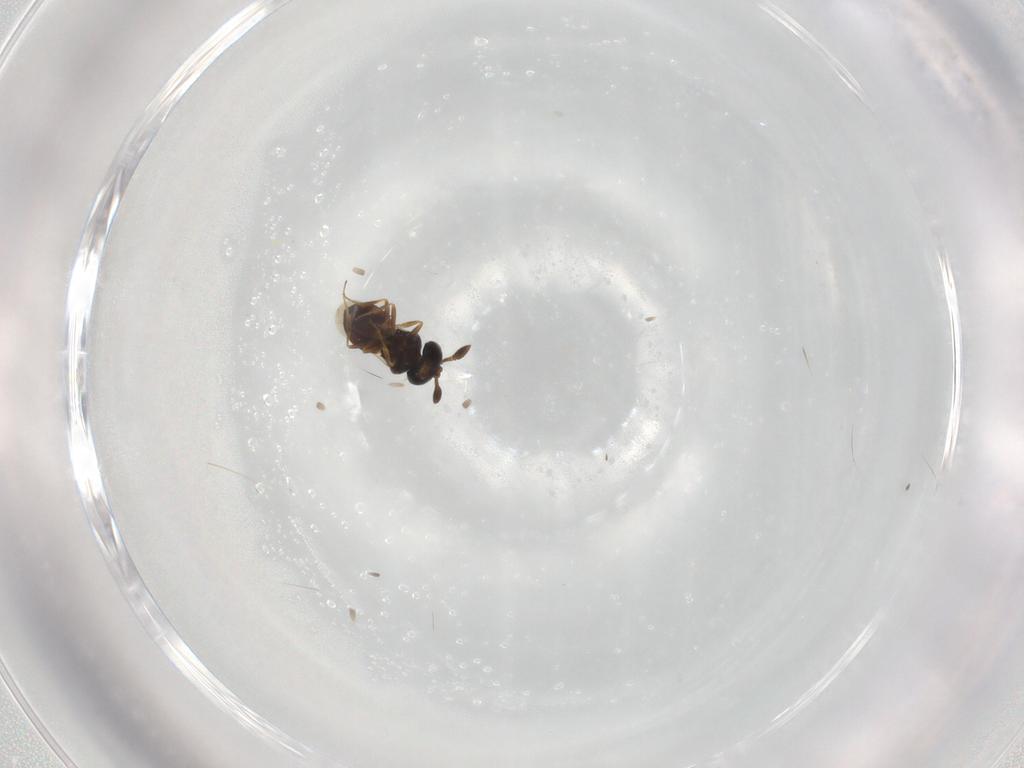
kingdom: Animalia
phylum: Arthropoda
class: Insecta
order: Hymenoptera
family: Scelionidae
